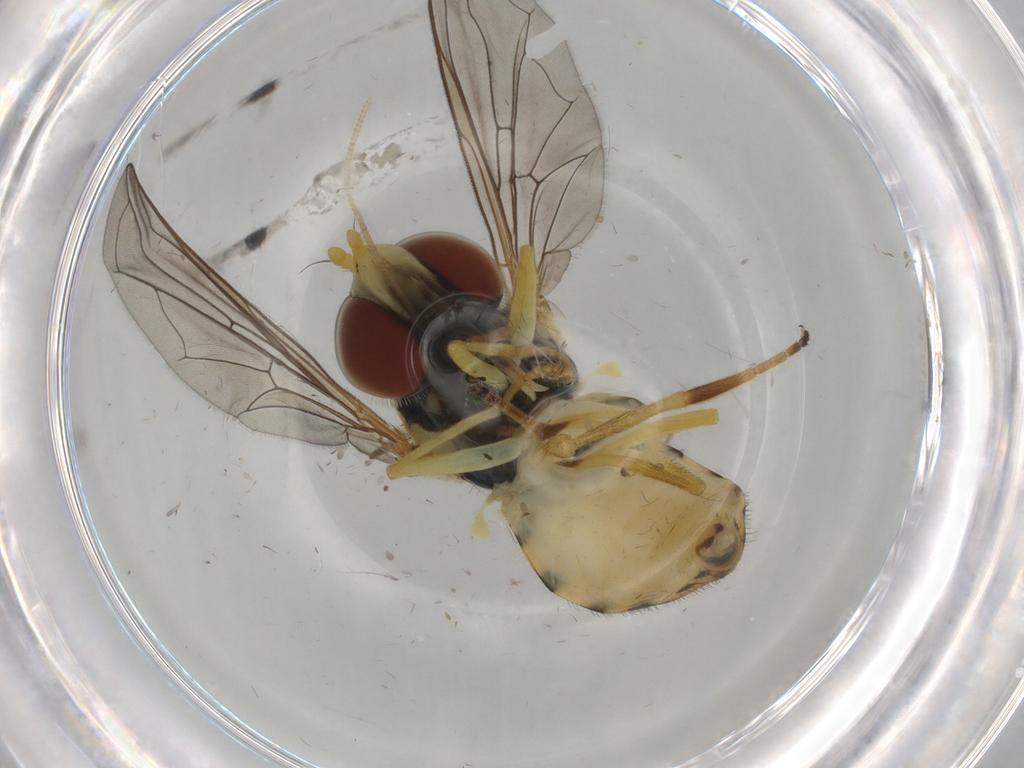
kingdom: Animalia
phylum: Arthropoda
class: Insecta
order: Diptera
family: Syrphidae
